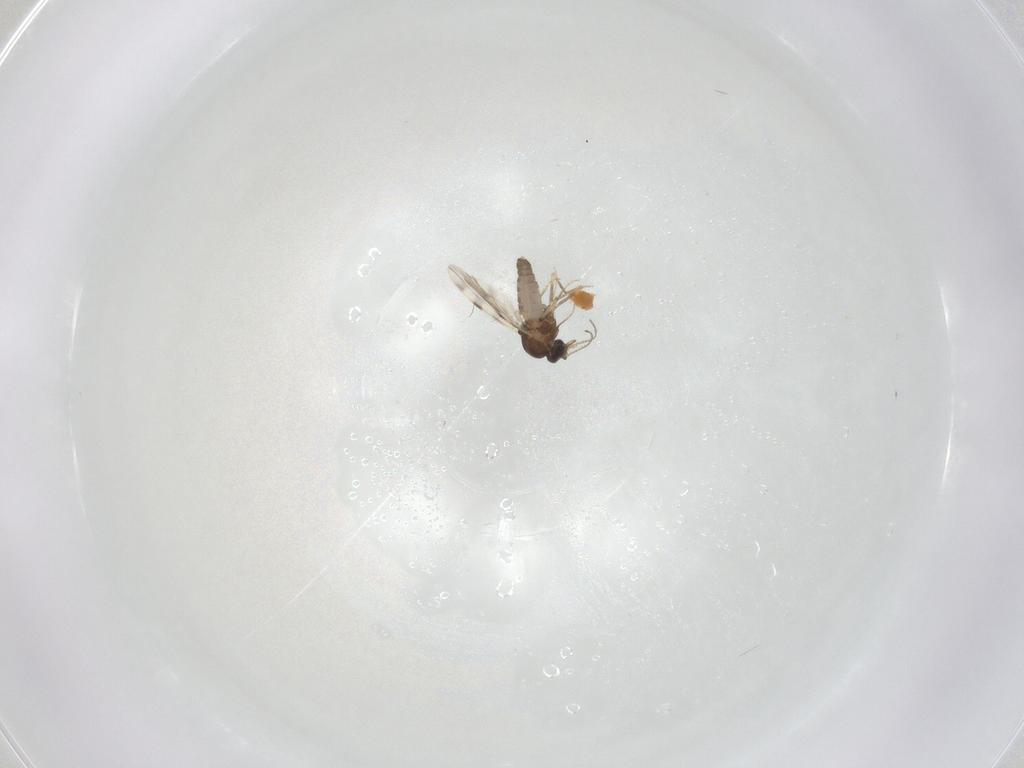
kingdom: Animalia
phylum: Arthropoda
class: Insecta
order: Diptera
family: Ceratopogonidae
